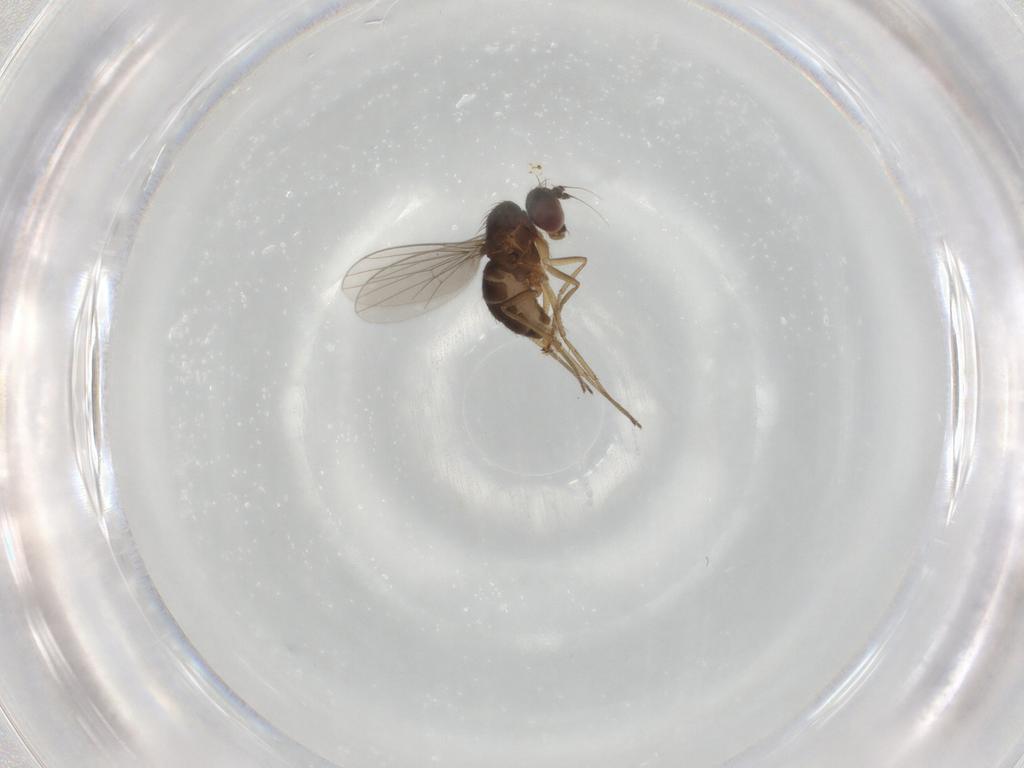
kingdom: Animalia
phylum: Arthropoda
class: Insecta
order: Diptera
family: Dolichopodidae
